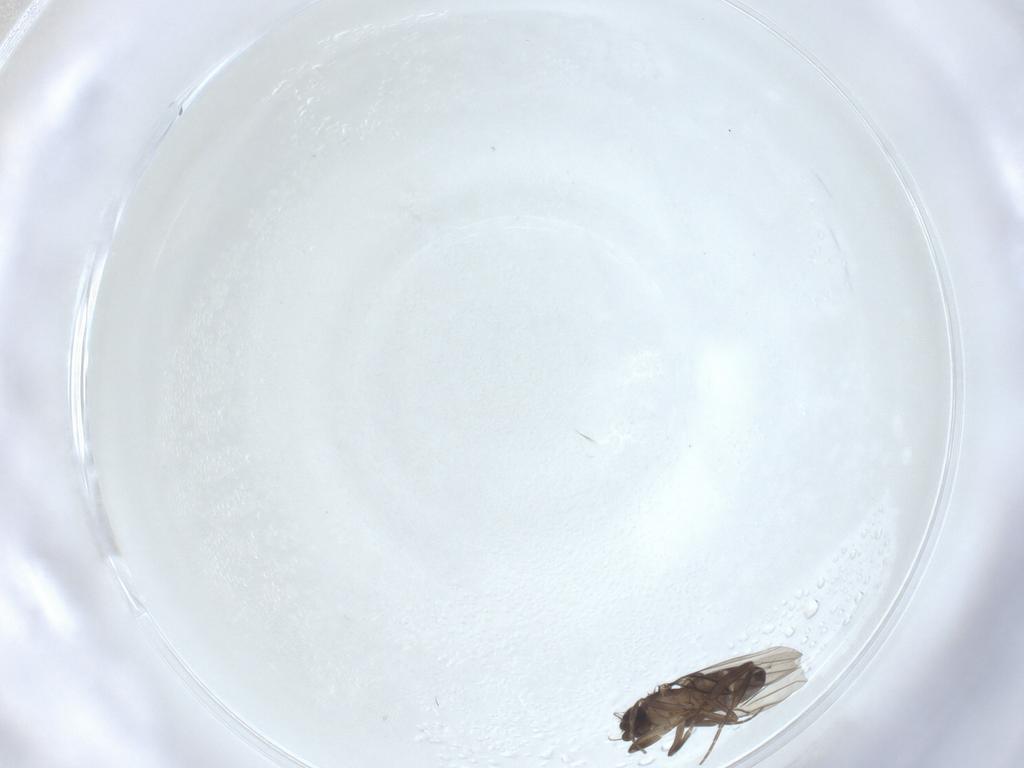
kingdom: Animalia
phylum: Arthropoda
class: Insecta
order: Diptera
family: Phoridae
